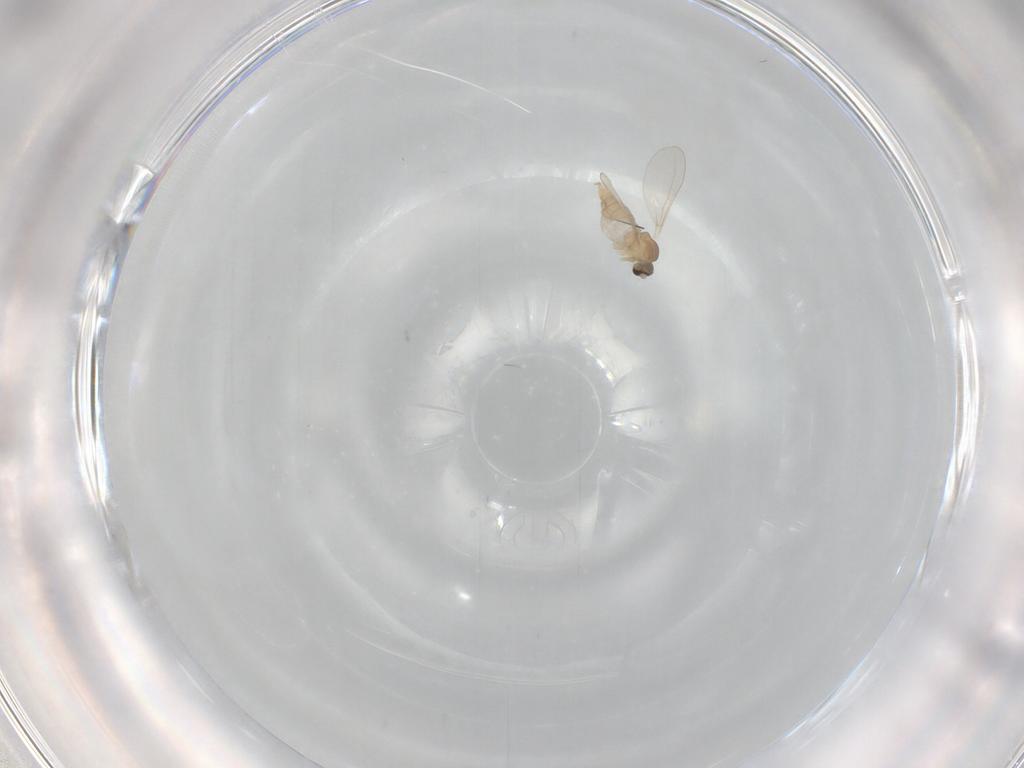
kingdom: Animalia
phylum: Arthropoda
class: Insecta
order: Diptera
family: Cecidomyiidae
